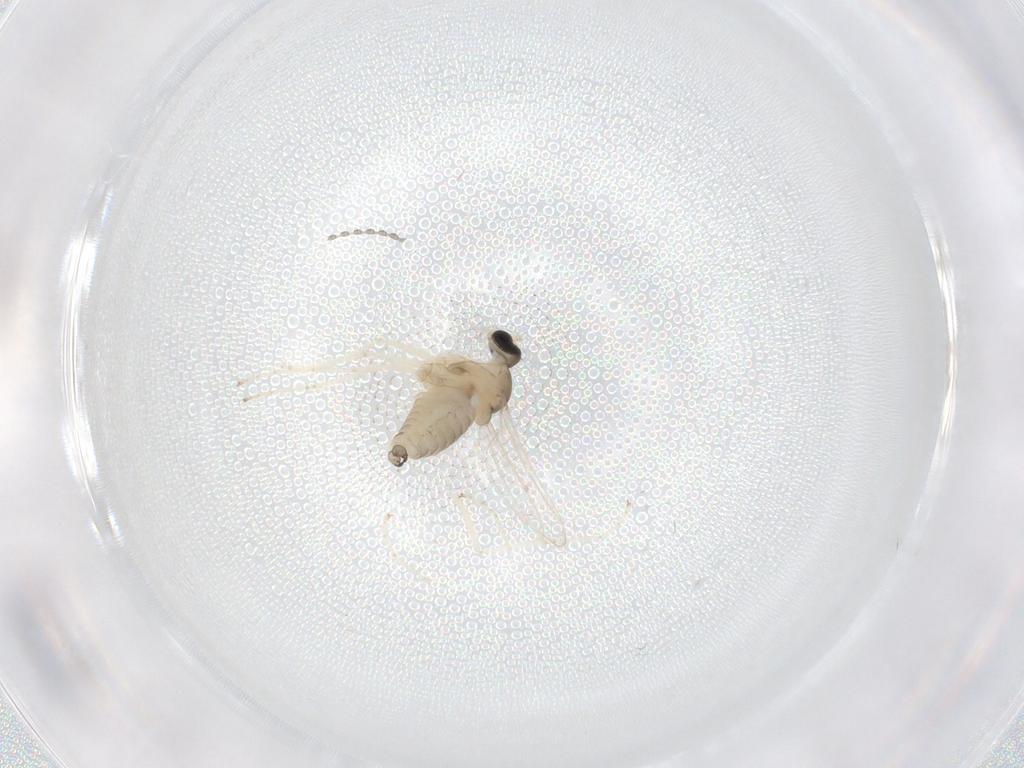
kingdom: Animalia
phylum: Arthropoda
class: Insecta
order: Diptera
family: Cecidomyiidae
